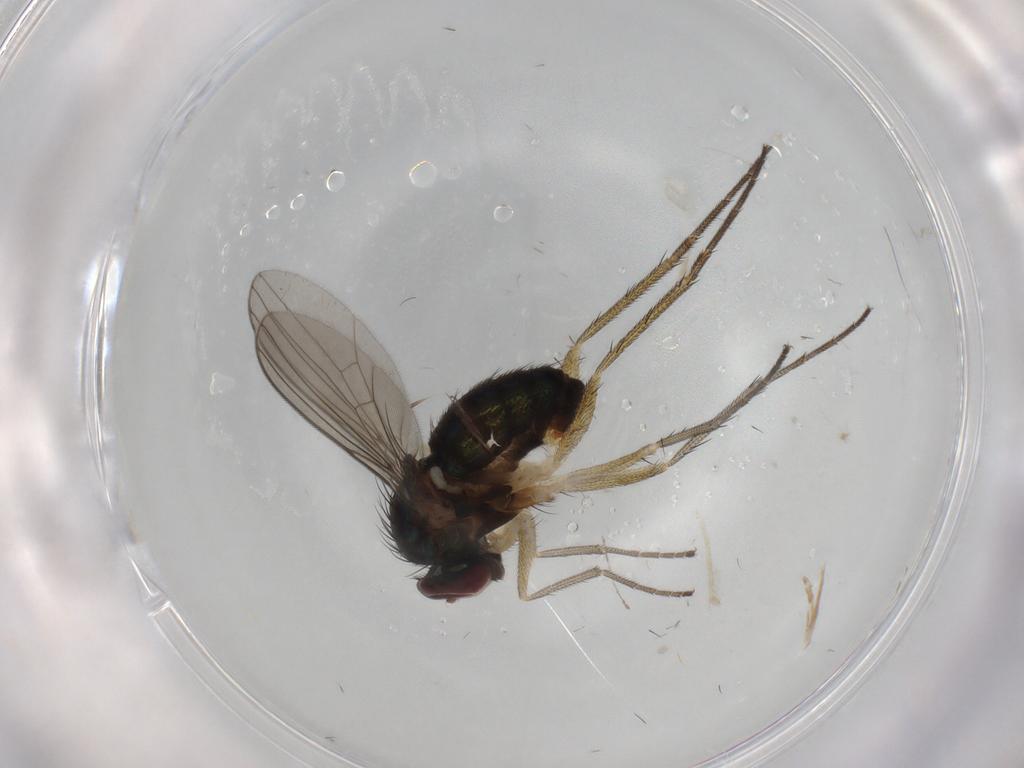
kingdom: Animalia
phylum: Arthropoda
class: Insecta
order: Diptera
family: Dolichopodidae
